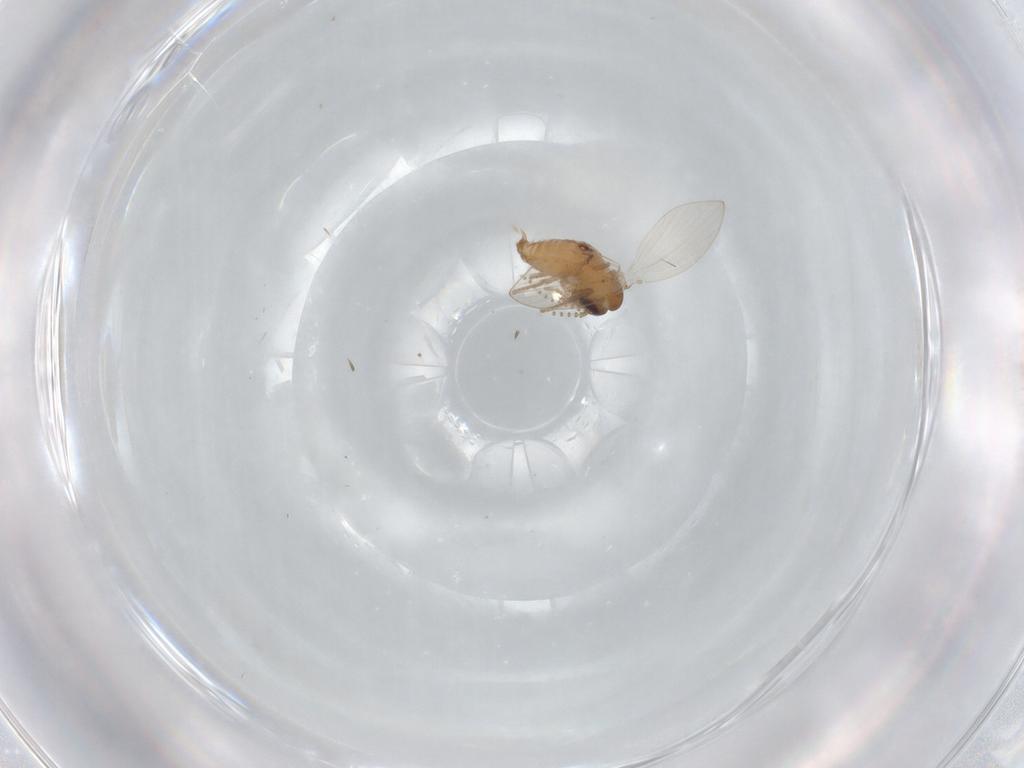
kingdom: Animalia
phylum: Arthropoda
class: Insecta
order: Diptera
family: Psychodidae
